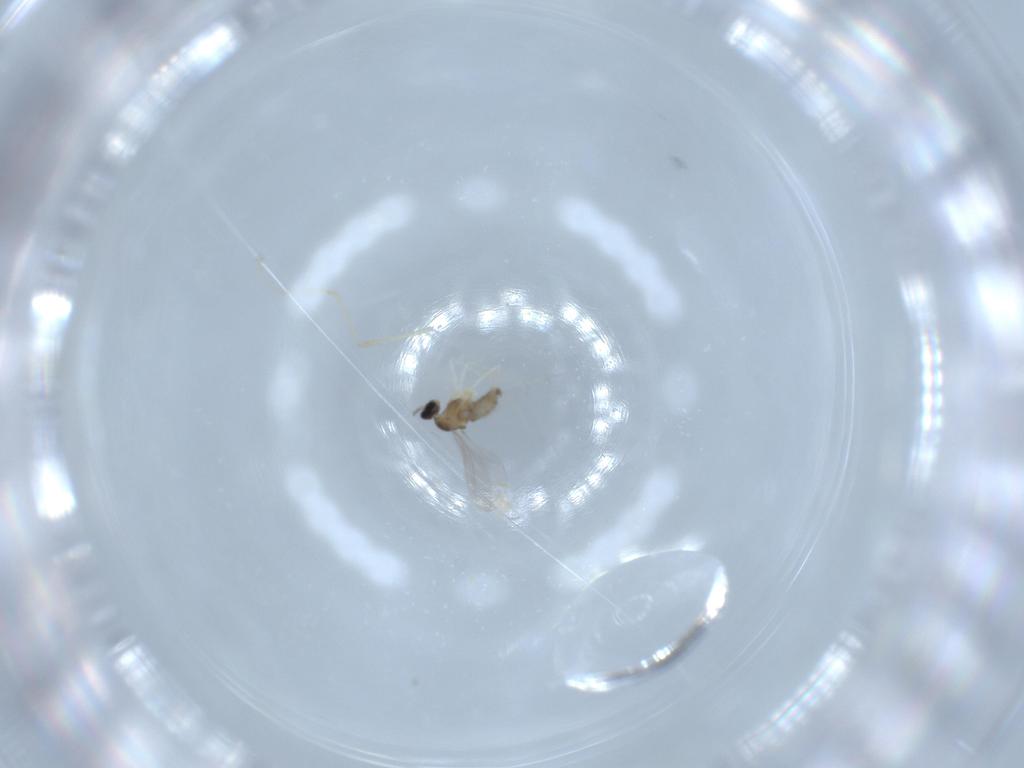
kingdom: Animalia
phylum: Arthropoda
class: Insecta
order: Diptera
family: Cecidomyiidae
